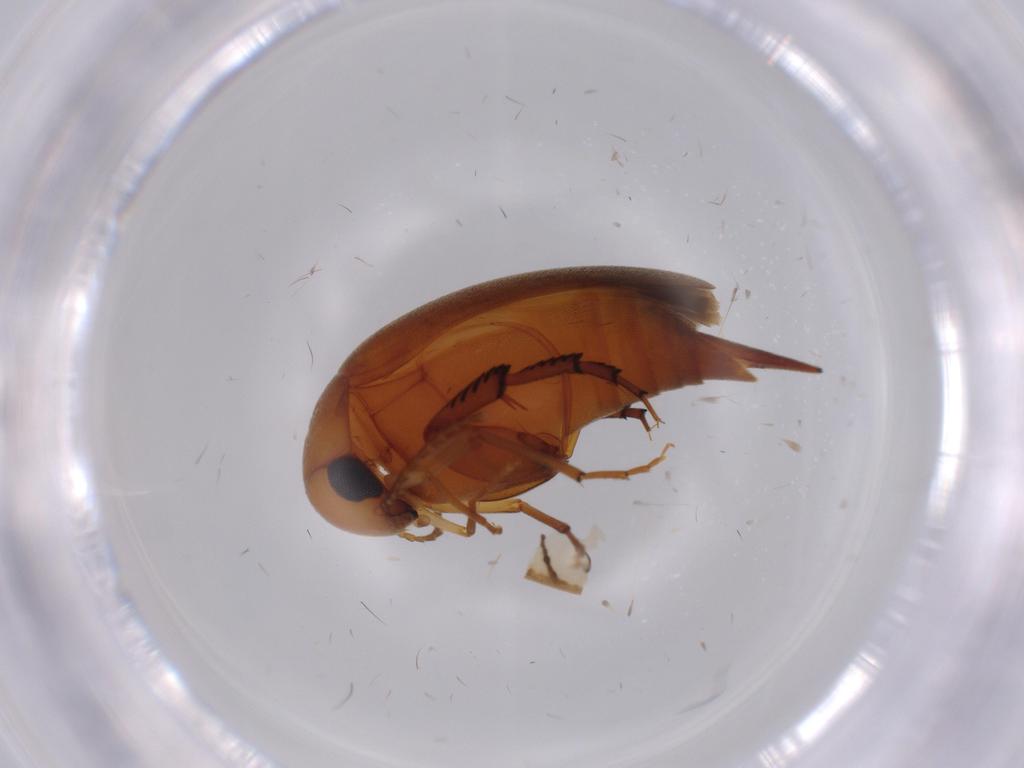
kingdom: Animalia
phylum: Arthropoda
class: Insecta
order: Coleoptera
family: Mordellidae
